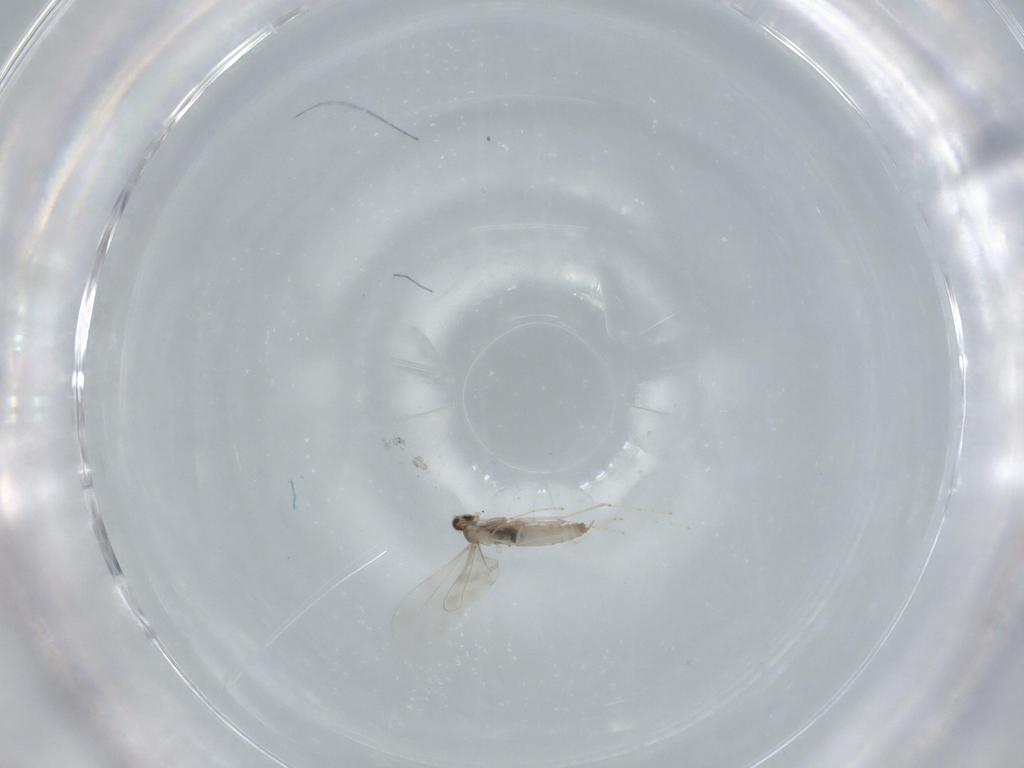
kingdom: Animalia
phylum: Arthropoda
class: Insecta
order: Diptera
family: Cecidomyiidae
